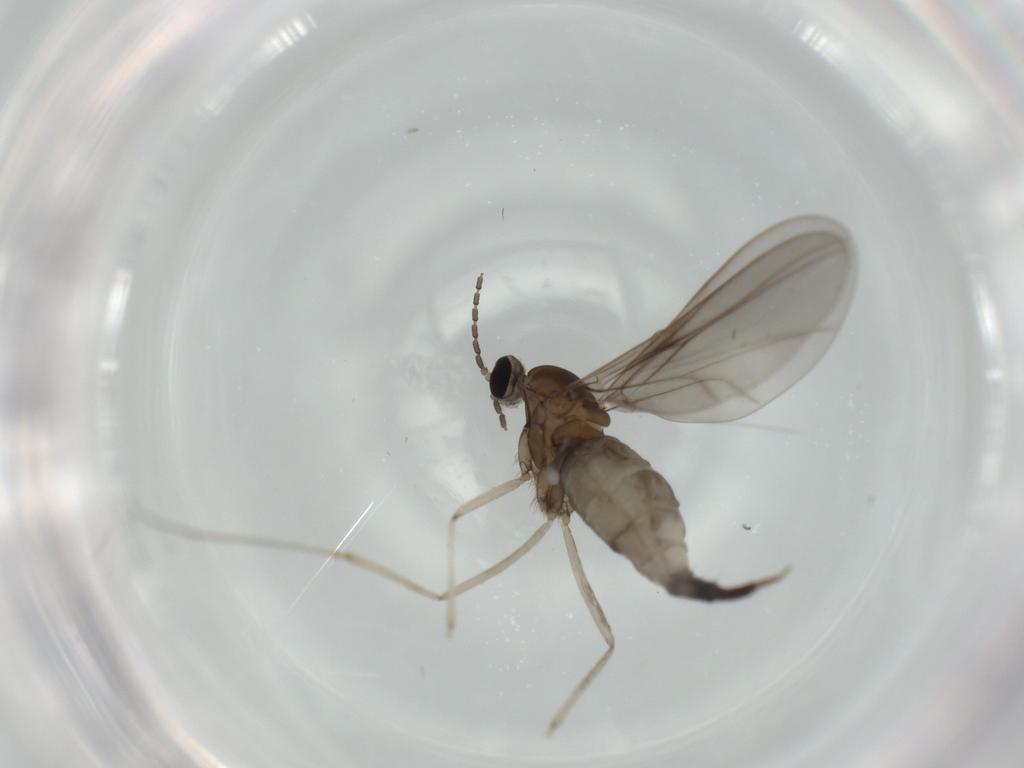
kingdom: Animalia
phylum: Arthropoda
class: Insecta
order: Diptera
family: Cecidomyiidae
